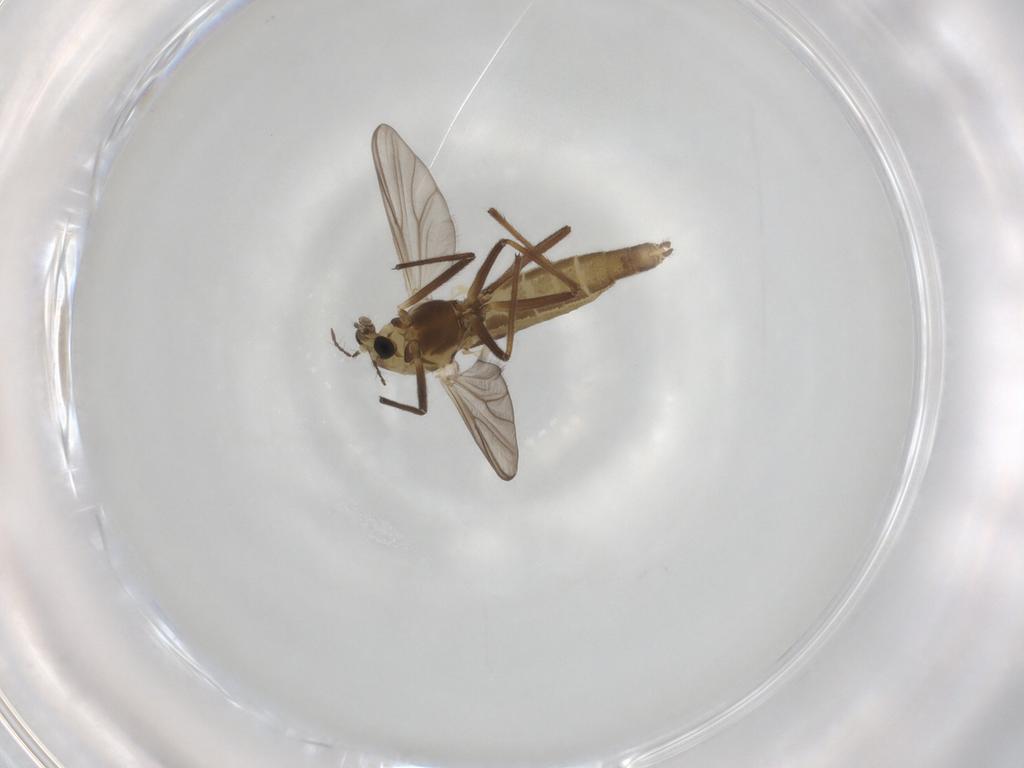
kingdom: Animalia
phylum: Arthropoda
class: Insecta
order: Diptera
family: Chironomidae
